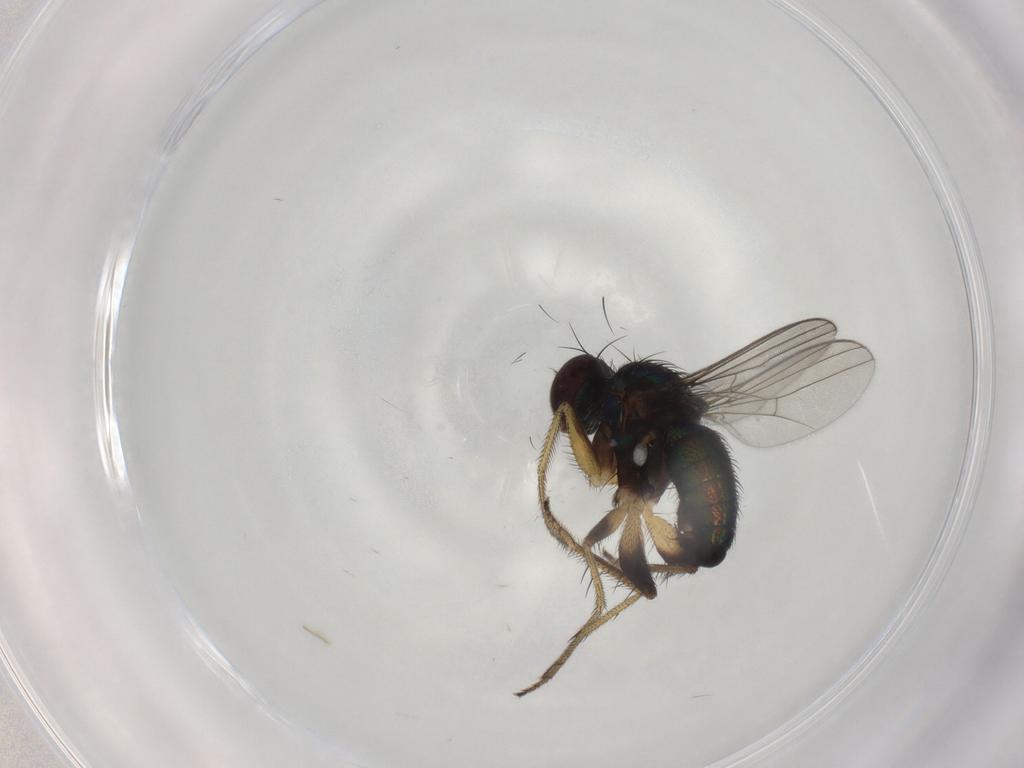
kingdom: Animalia
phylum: Arthropoda
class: Insecta
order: Diptera
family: Dolichopodidae
